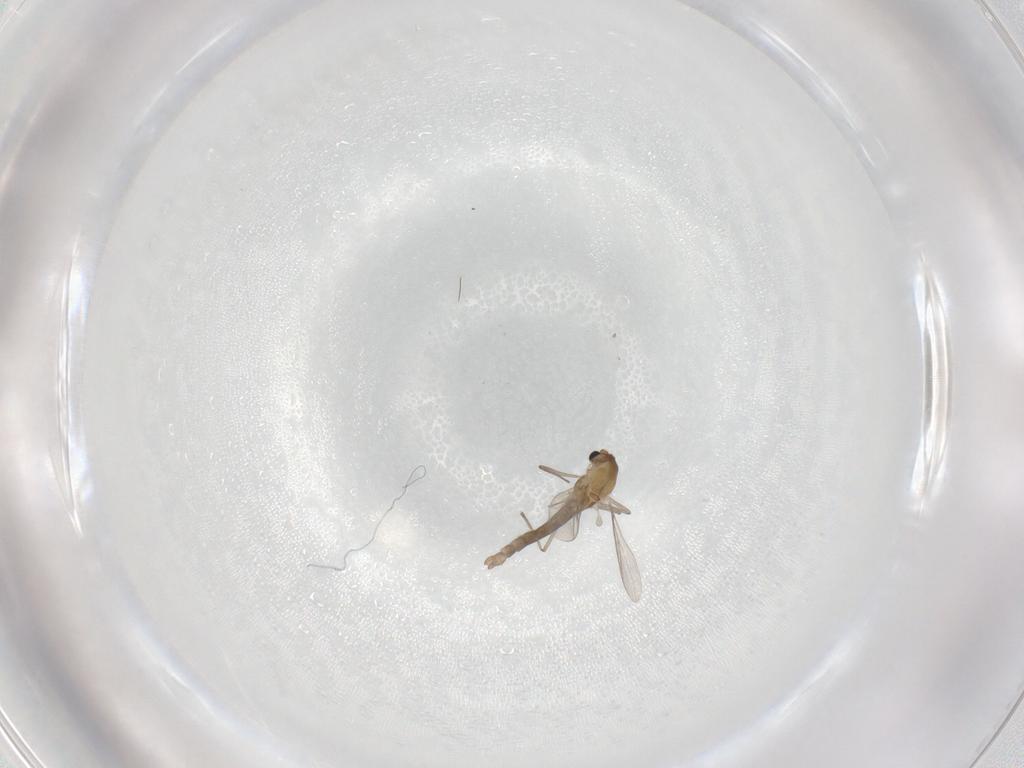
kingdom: Animalia
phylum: Arthropoda
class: Insecta
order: Diptera
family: Chironomidae
